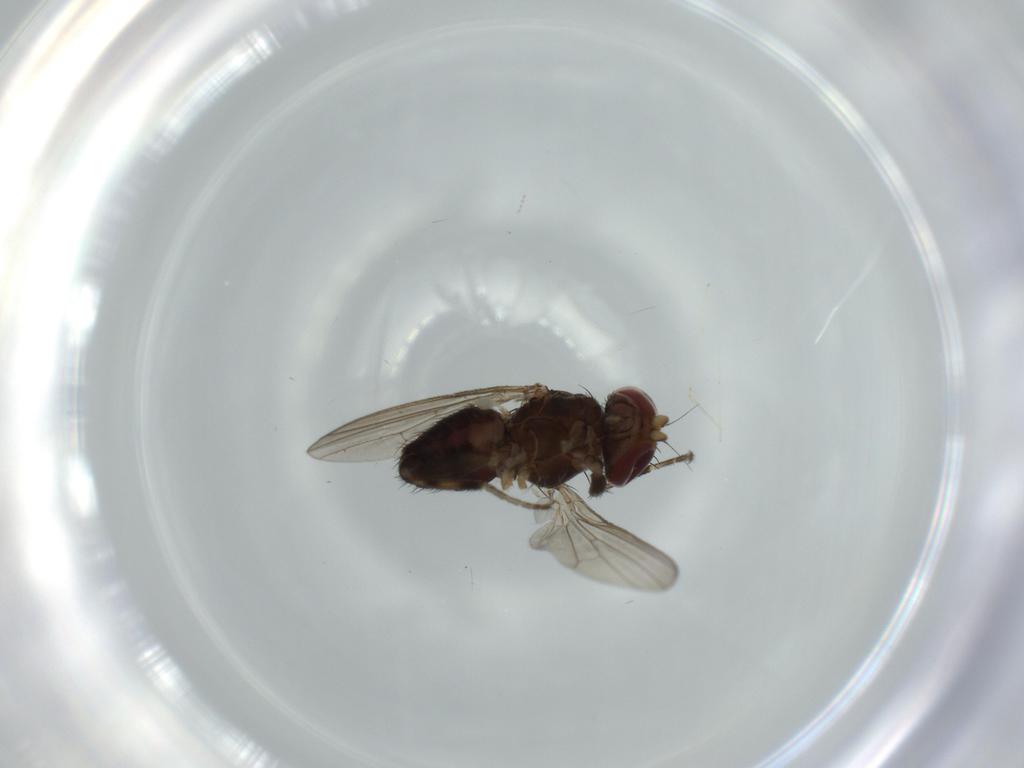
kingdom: Animalia
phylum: Arthropoda
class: Insecta
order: Diptera
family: Heleomyzidae
